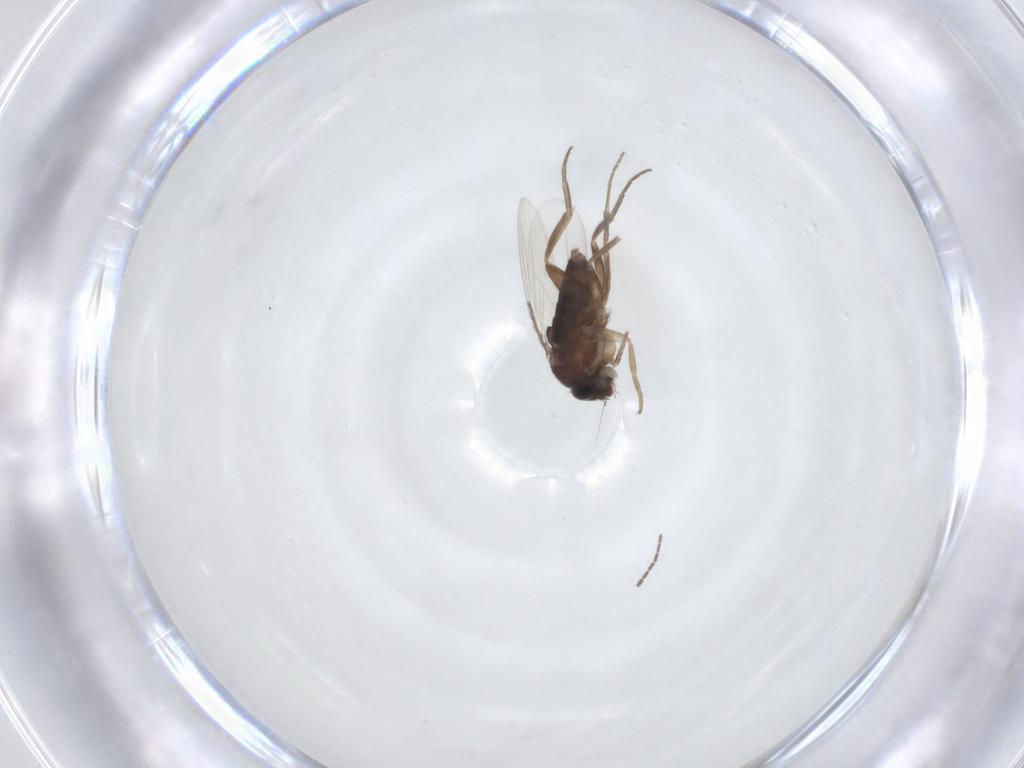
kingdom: Animalia
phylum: Arthropoda
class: Insecta
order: Diptera
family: Phoridae
